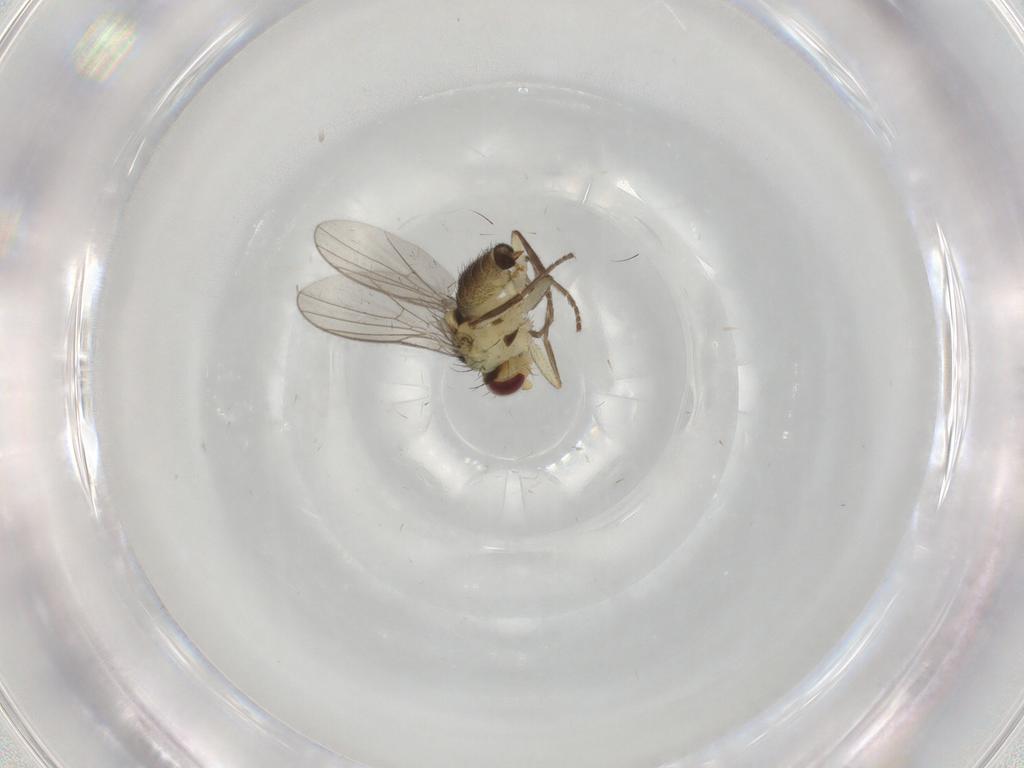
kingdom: Animalia
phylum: Arthropoda
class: Insecta
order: Diptera
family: Agromyzidae
